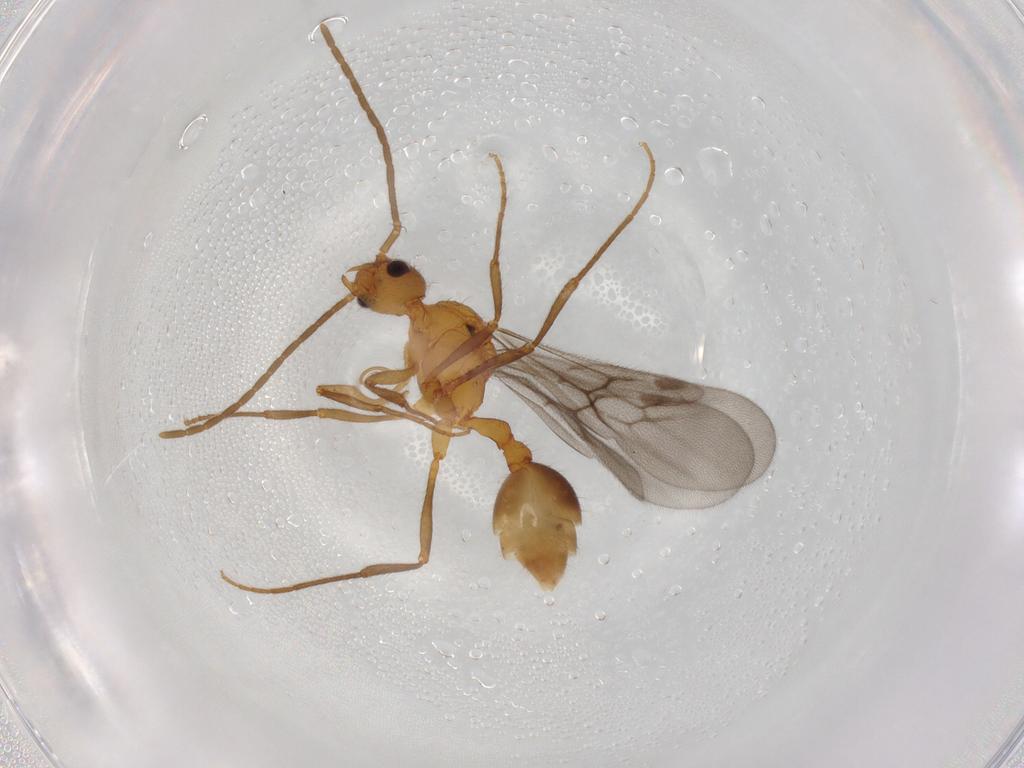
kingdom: Animalia
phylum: Arthropoda
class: Insecta
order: Hymenoptera
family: Formicidae
